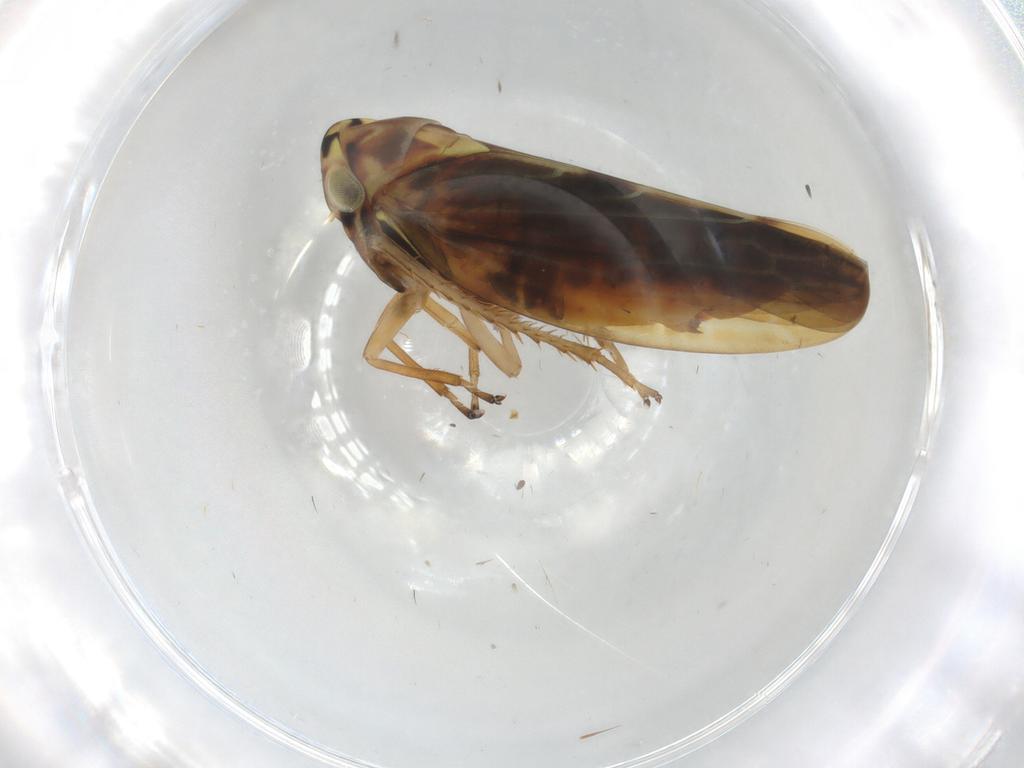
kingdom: Animalia
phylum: Arthropoda
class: Insecta
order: Hemiptera
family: Cicadellidae
